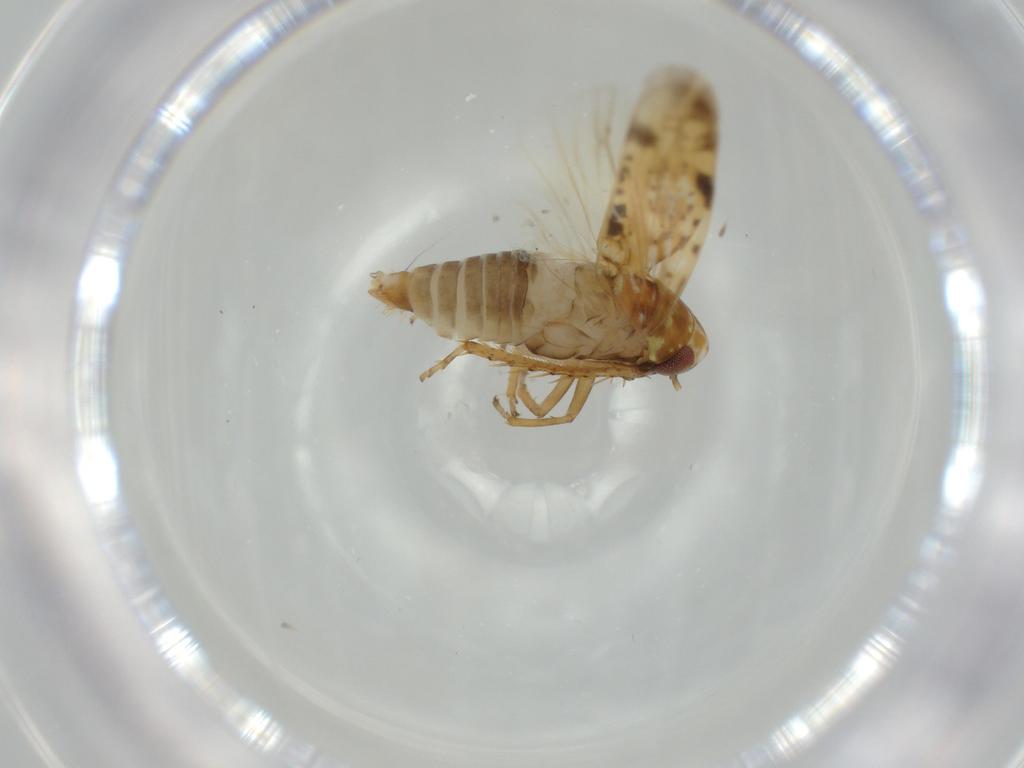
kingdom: Animalia
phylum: Arthropoda
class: Insecta
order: Hemiptera
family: Cicadellidae
